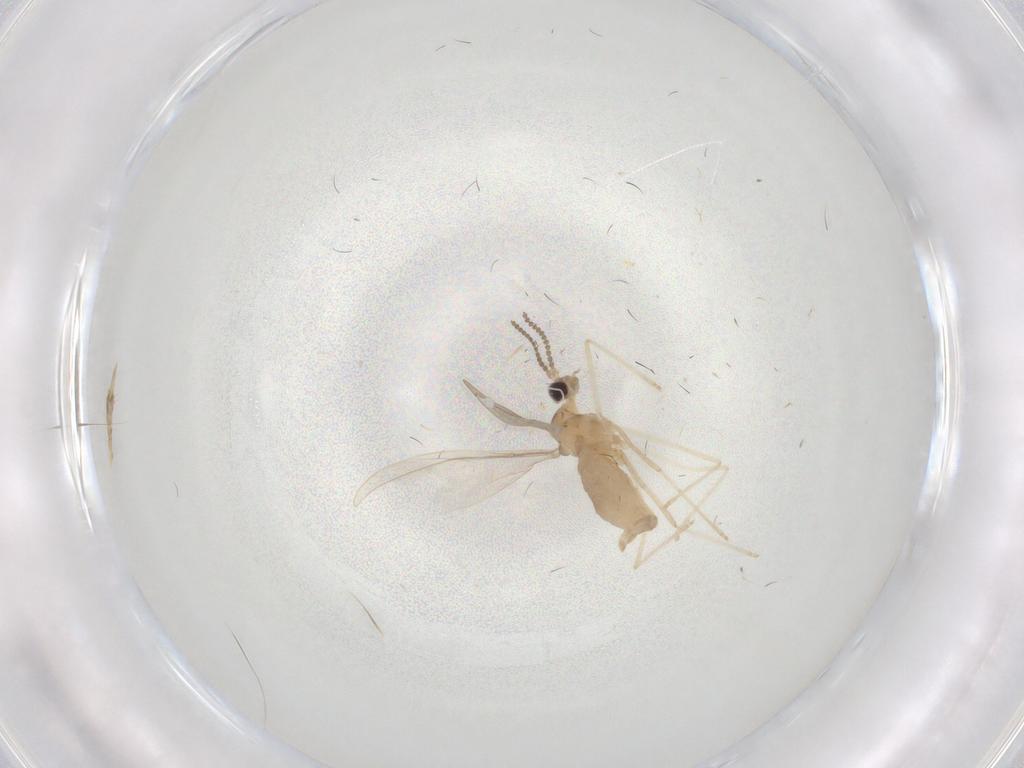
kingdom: Animalia
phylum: Arthropoda
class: Insecta
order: Diptera
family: Cecidomyiidae
